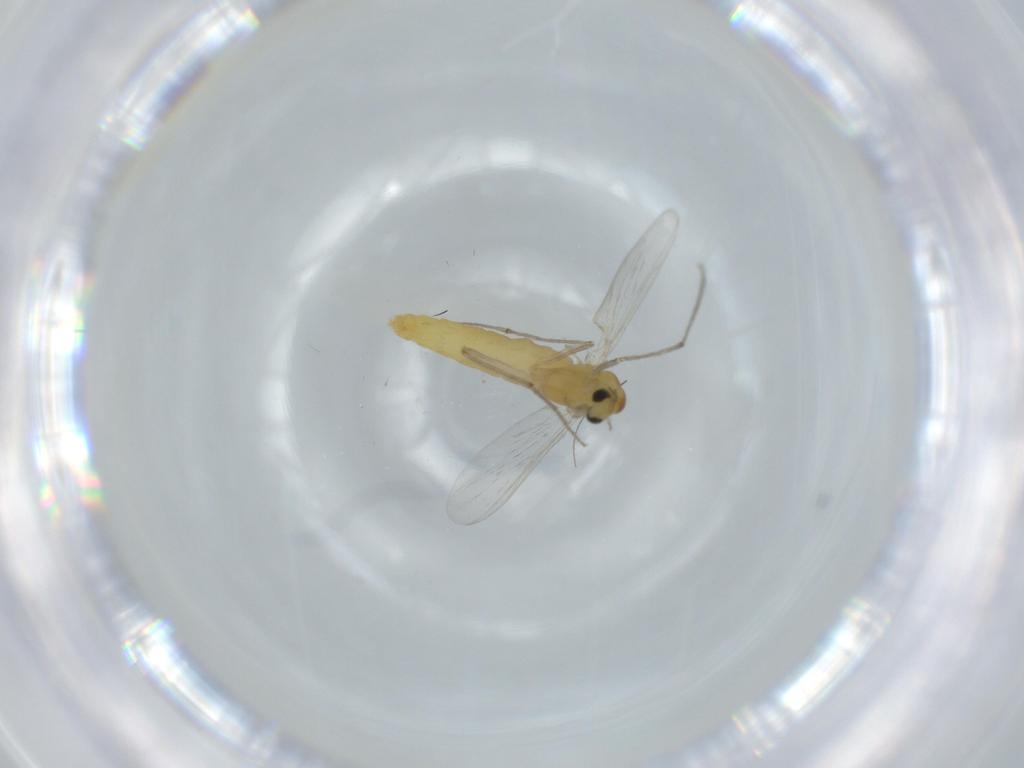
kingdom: Animalia
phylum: Arthropoda
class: Insecta
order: Diptera
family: Chironomidae
